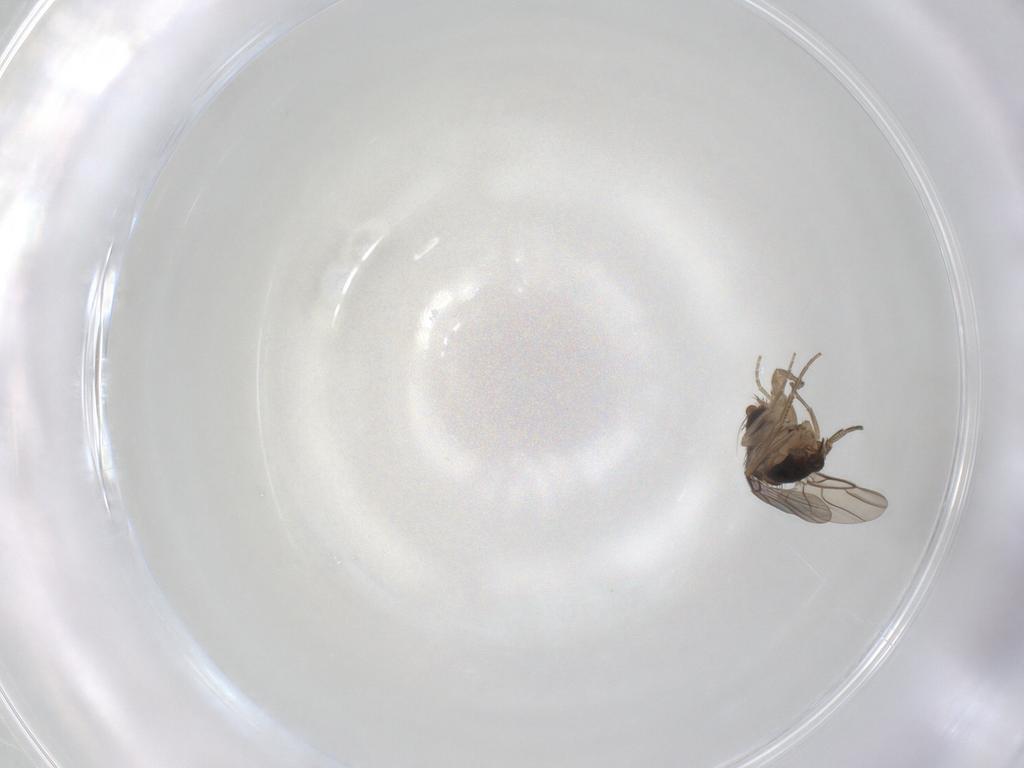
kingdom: Animalia
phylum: Arthropoda
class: Insecta
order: Diptera
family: Phoridae
